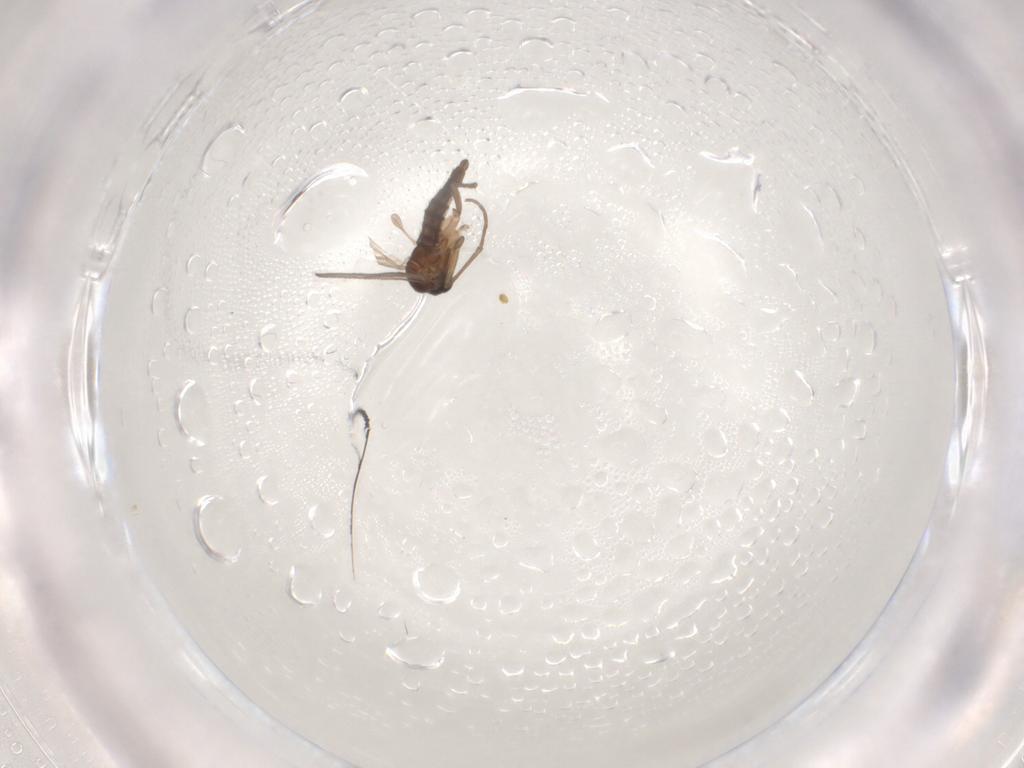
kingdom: Animalia
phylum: Arthropoda
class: Insecta
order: Diptera
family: Sciaridae
